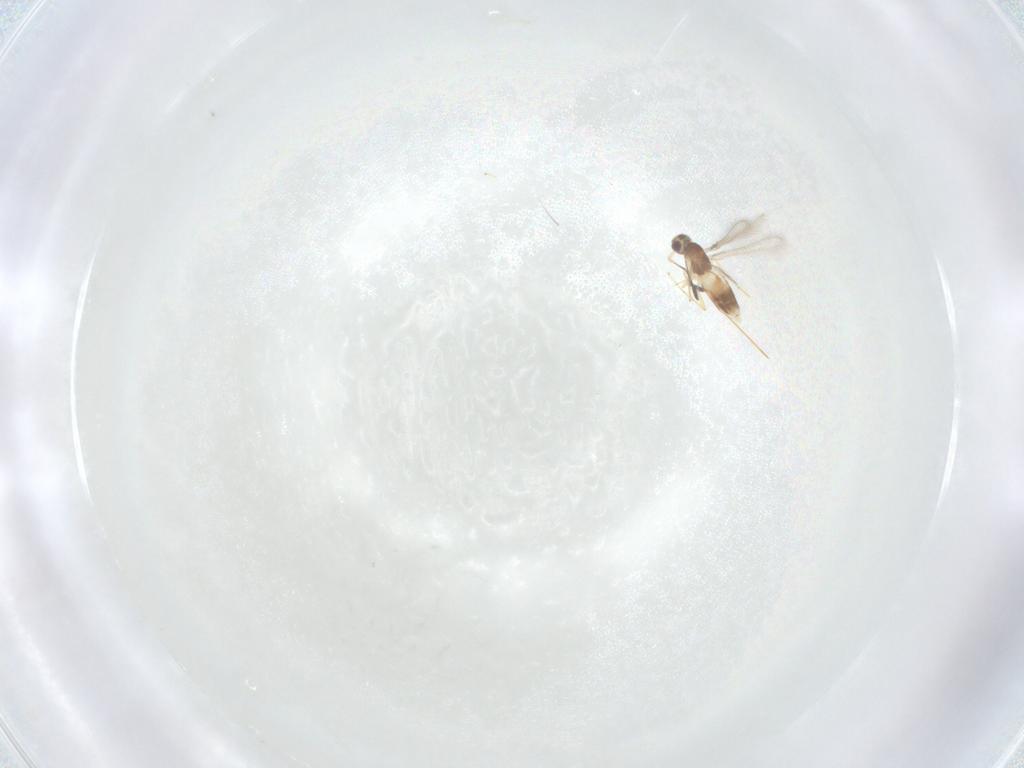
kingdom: Animalia
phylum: Arthropoda
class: Insecta
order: Hymenoptera
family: Mymaridae
